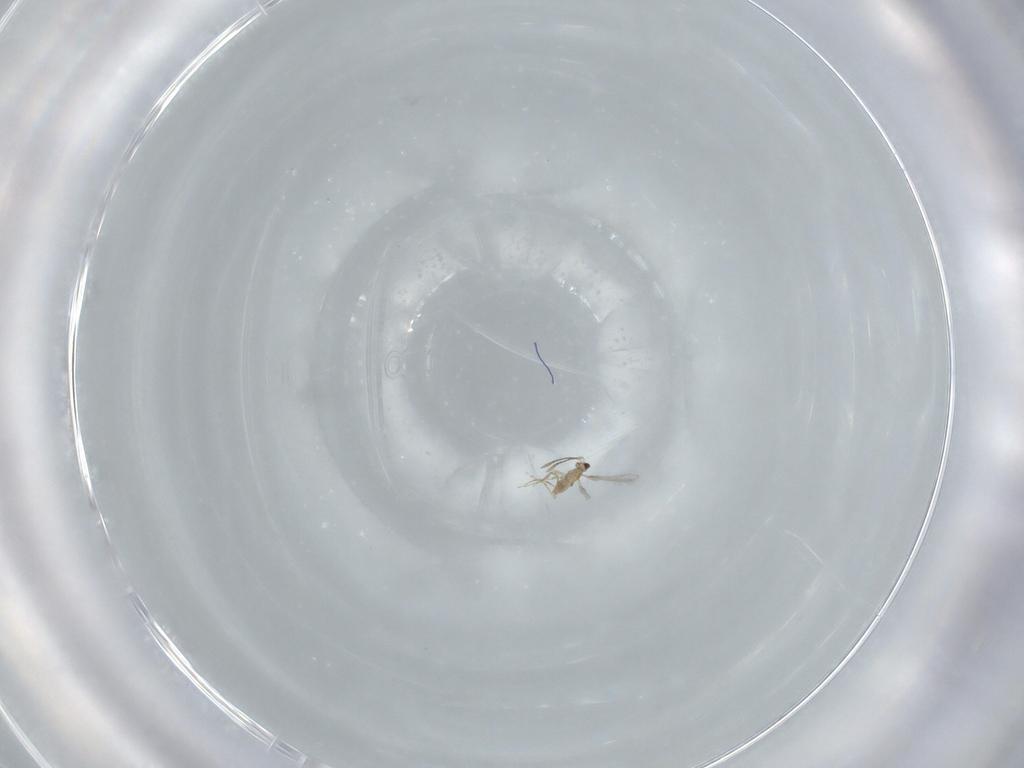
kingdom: Animalia
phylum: Arthropoda
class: Insecta
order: Hymenoptera
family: Mymaridae
